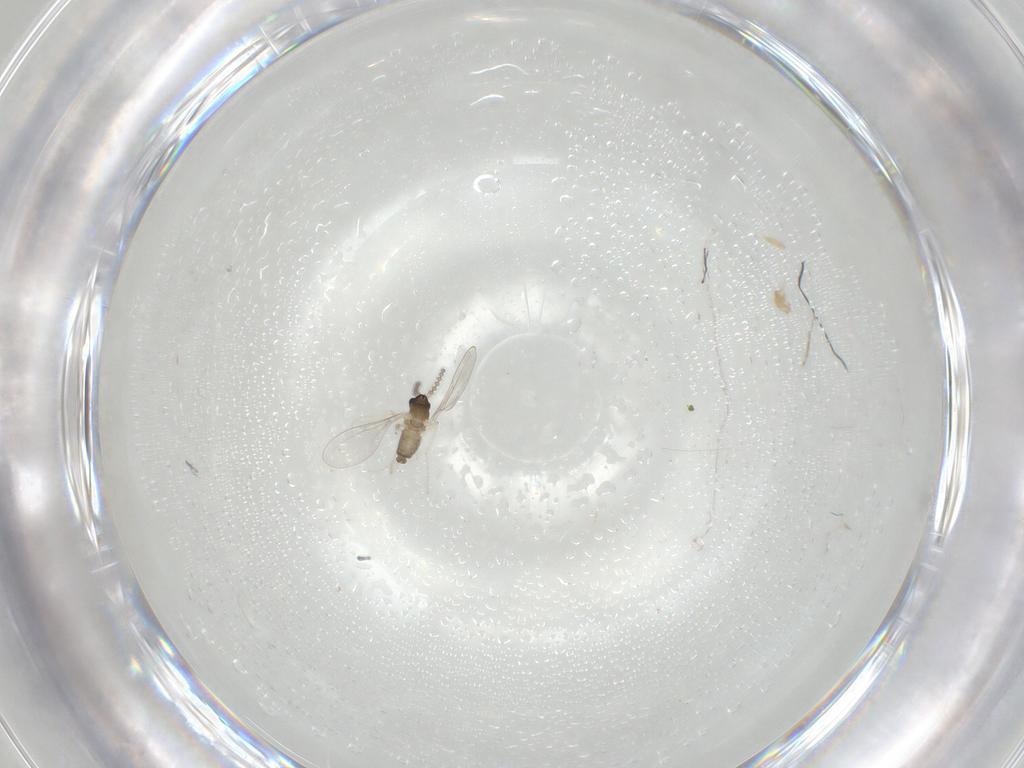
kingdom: Animalia
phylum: Arthropoda
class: Insecta
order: Diptera
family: Cecidomyiidae
